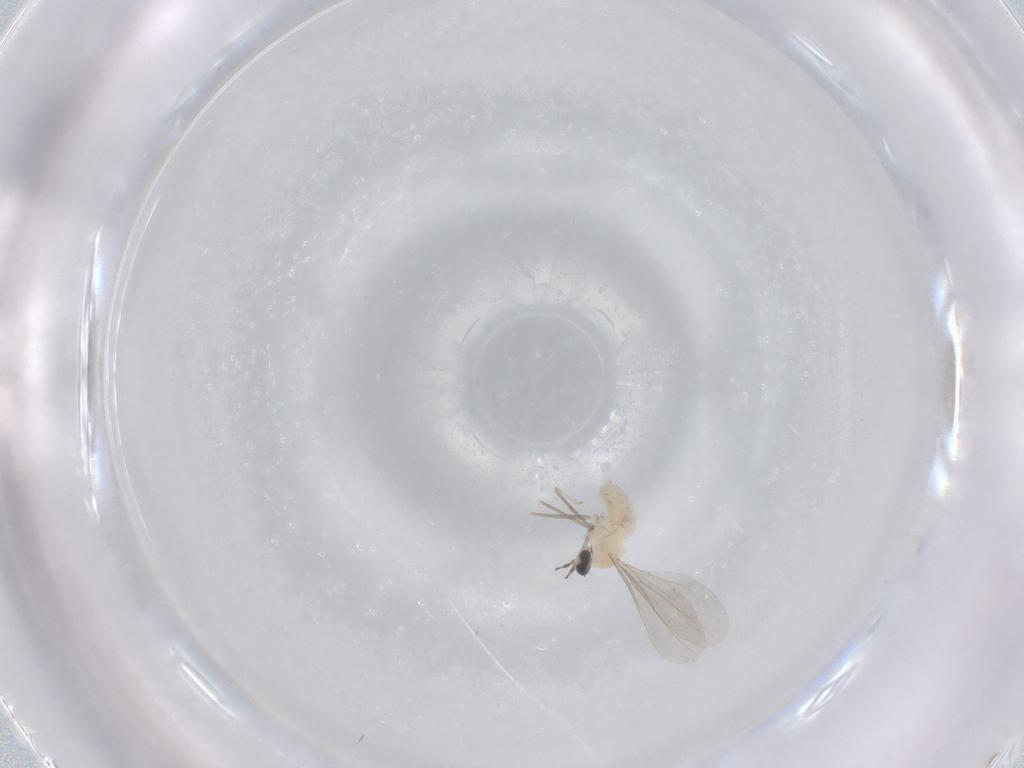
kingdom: Animalia
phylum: Arthropoda
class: Insecta
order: Diptera
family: Cecidomyiidae
